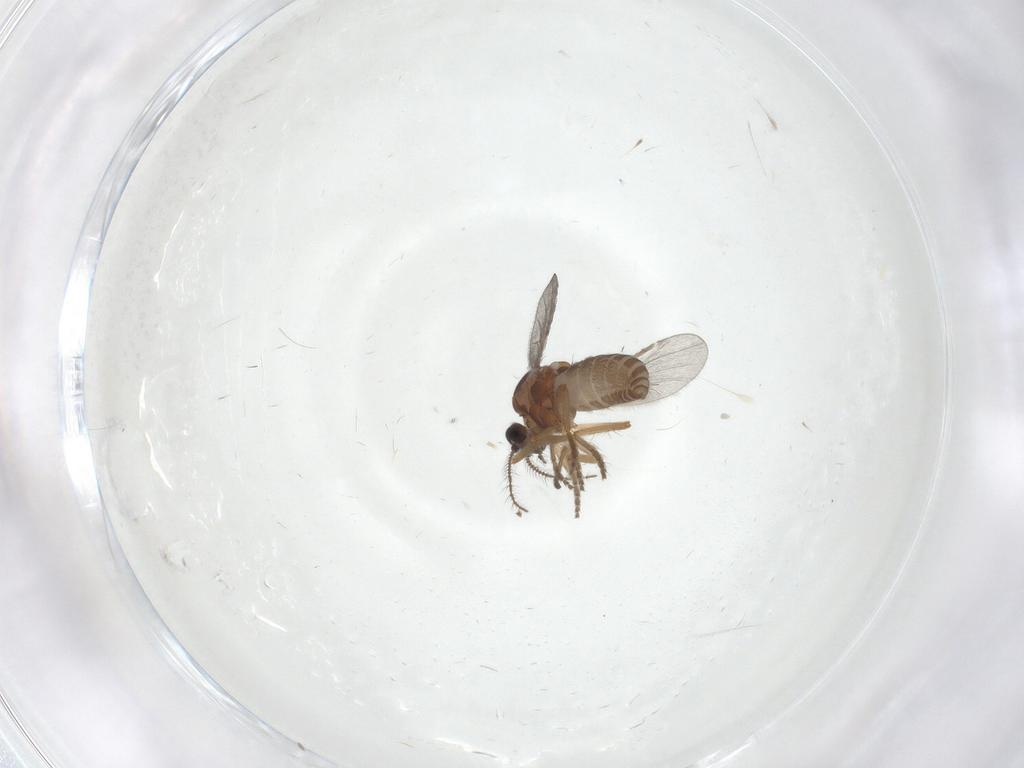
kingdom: Animalia
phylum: Arthropoda
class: Insecta
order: Diptera
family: Ceratopogonidae
